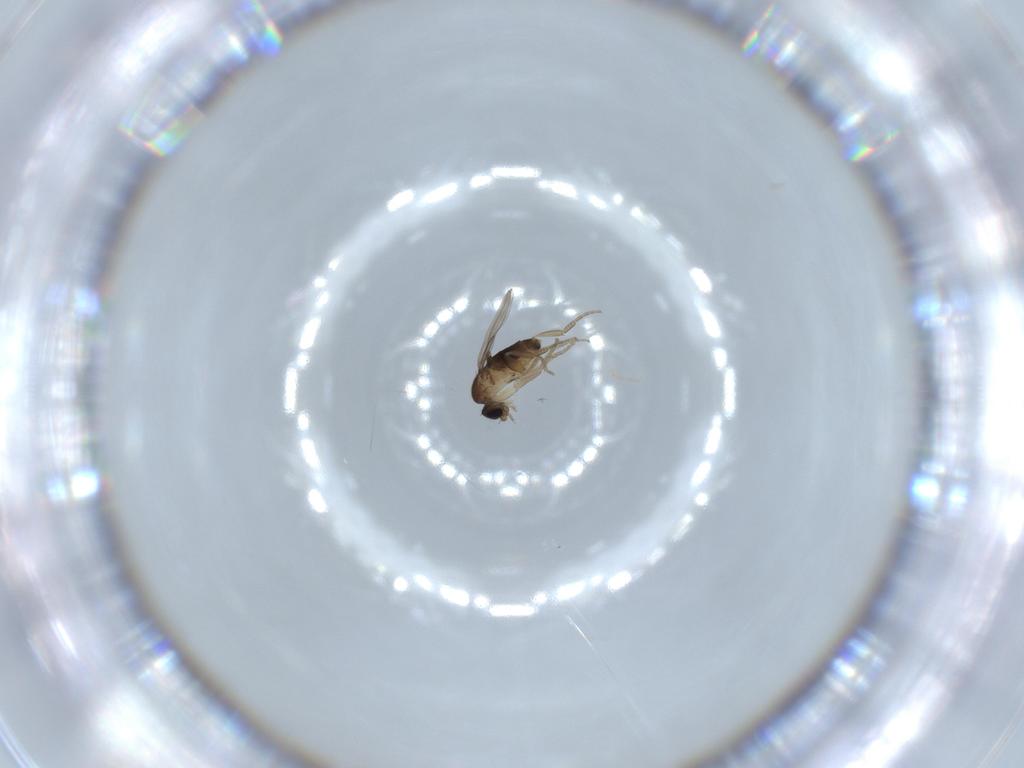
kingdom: Animalia
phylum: Arthropoda
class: Insecta
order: Diptera
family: Phoridae
